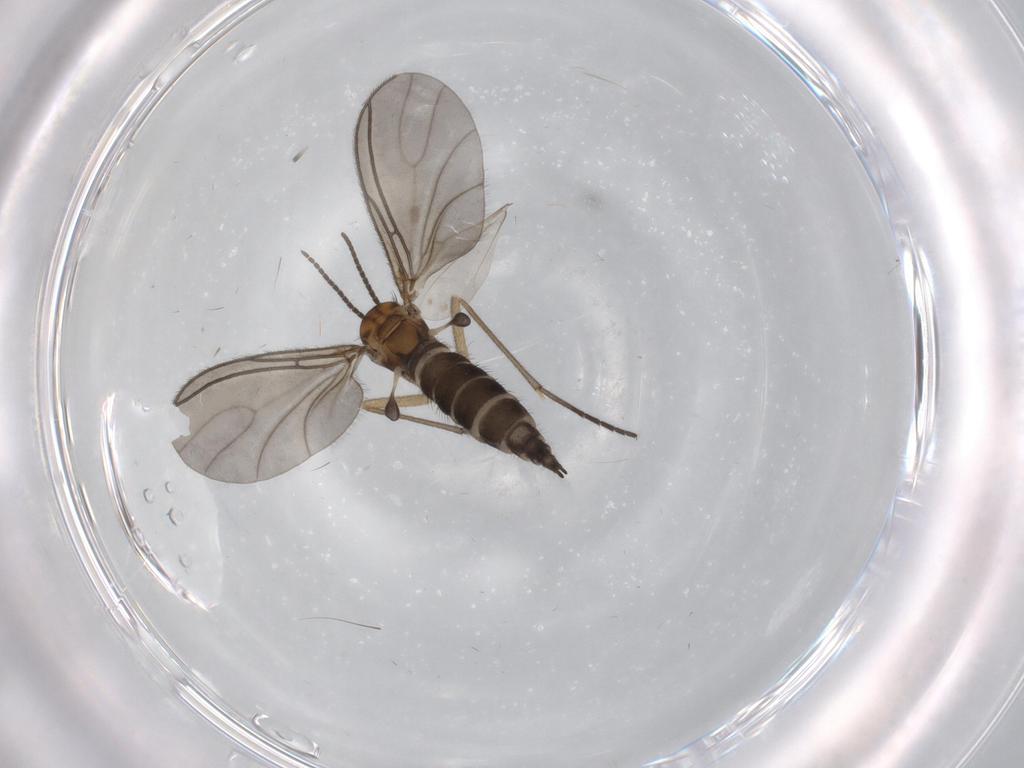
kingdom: Animalia
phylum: Arthropoda
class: Insecta
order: Diptera
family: Sciaridae
